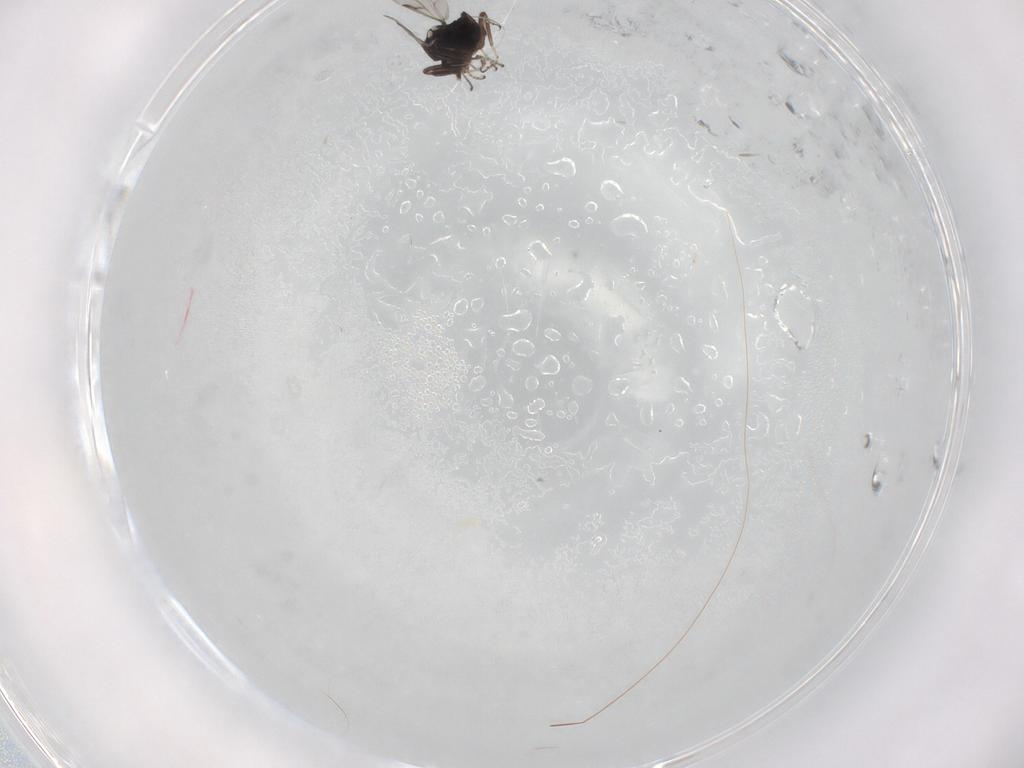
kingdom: Animalia
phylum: Arthropoda
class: Insecta
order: Diptera
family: Ceratopogonidae
